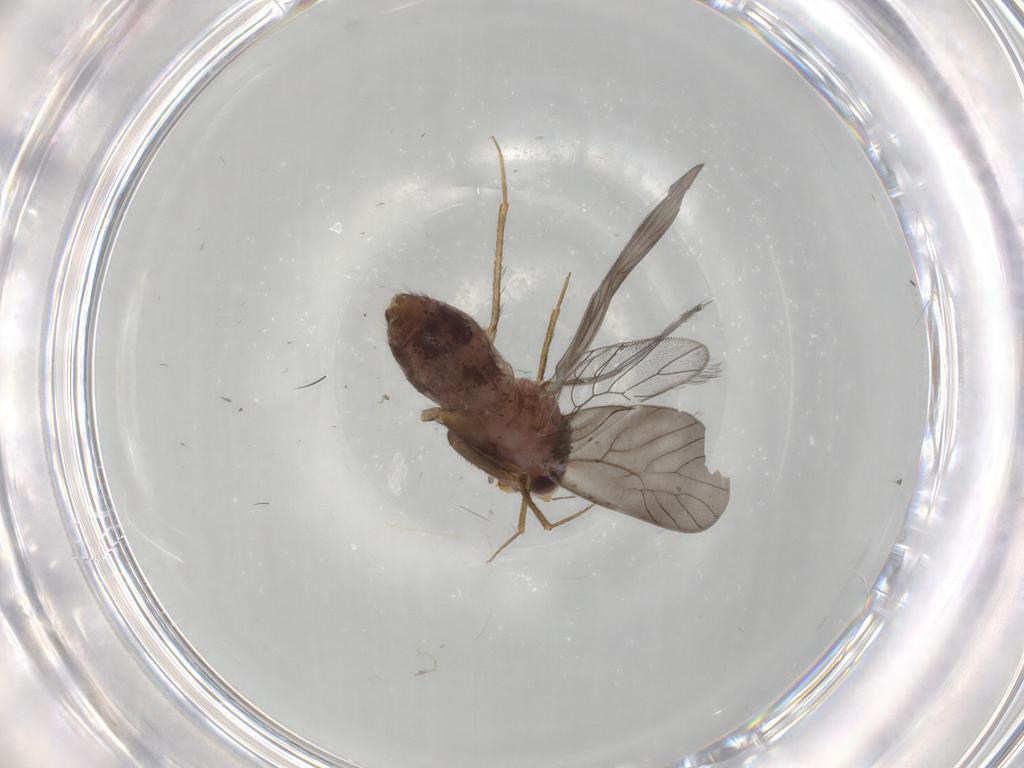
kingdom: Animalia
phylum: Arthropoda
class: Insecta
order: Psocodea
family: Lepidopsocidae
